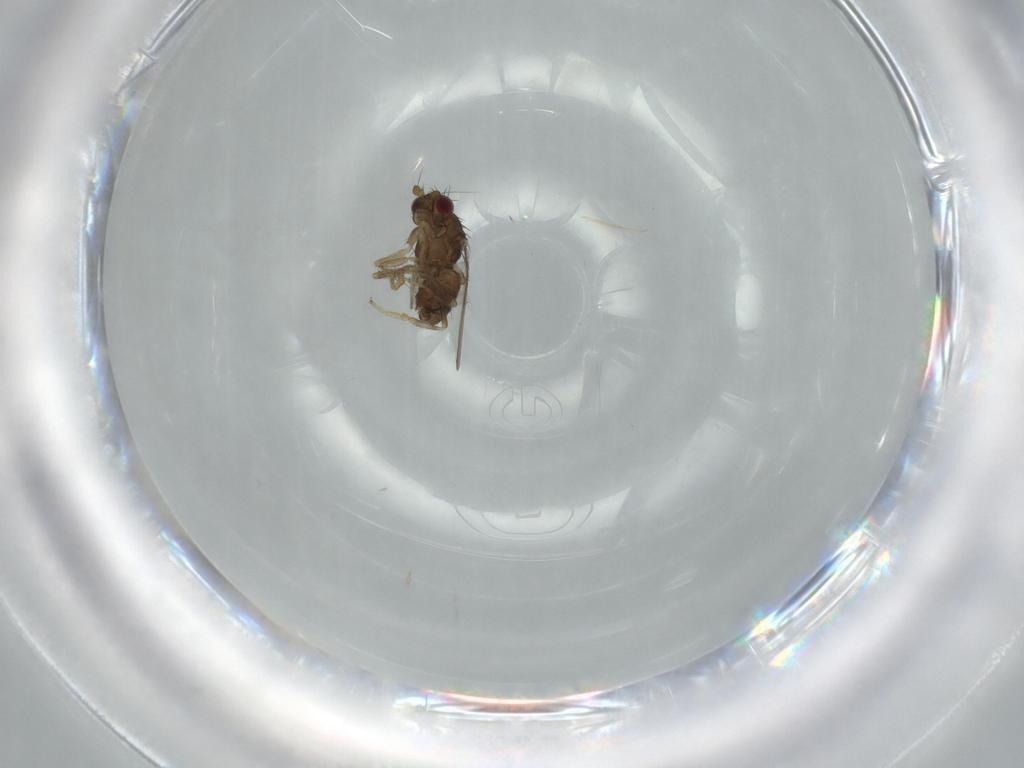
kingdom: Animalia
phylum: Arthropoda
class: Insecta
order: Diptera
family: Sphaeroceridae
